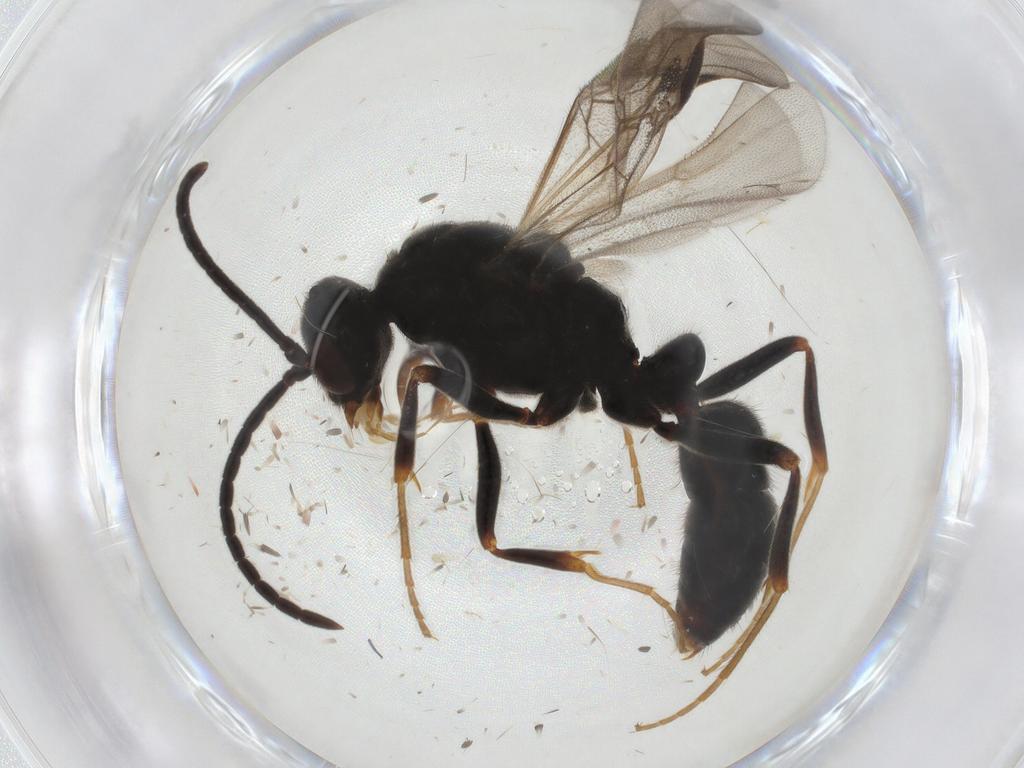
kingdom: Animalia
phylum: Arthropoda
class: Insecta
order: Hymenoptera
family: Formicidae
